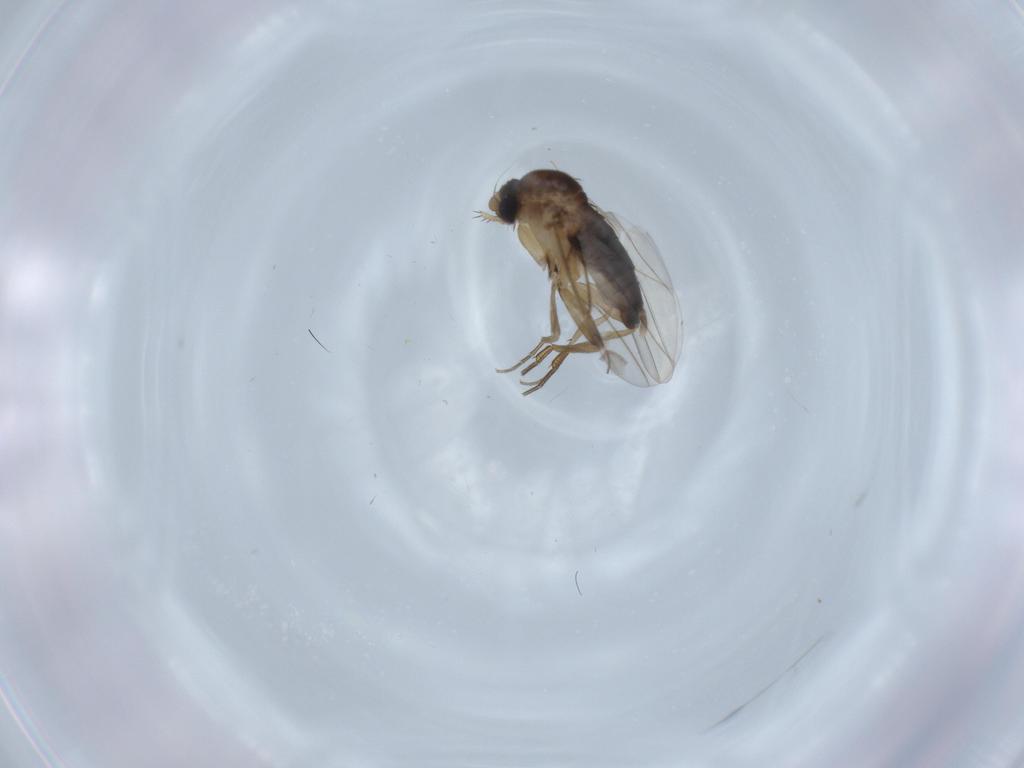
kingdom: Animalia
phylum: Arthropoda
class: Insecta
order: Diptera
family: Phoridae
